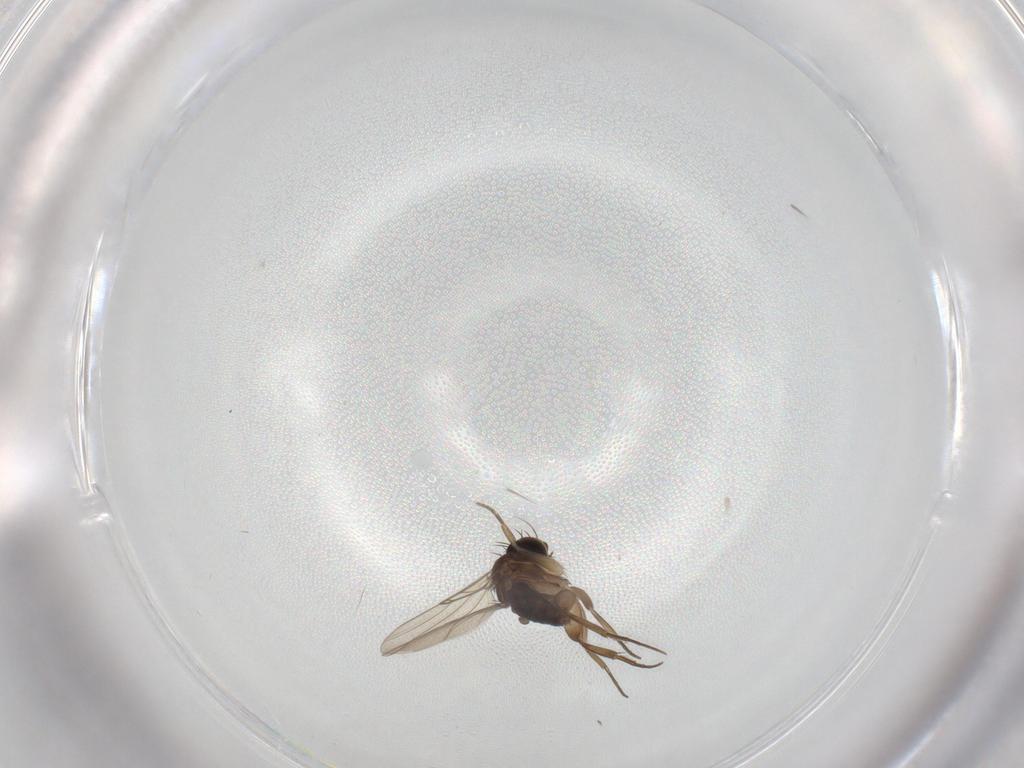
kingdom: Animalia
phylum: Arthropoda
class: Insecta
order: Diptera
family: Phoridae
